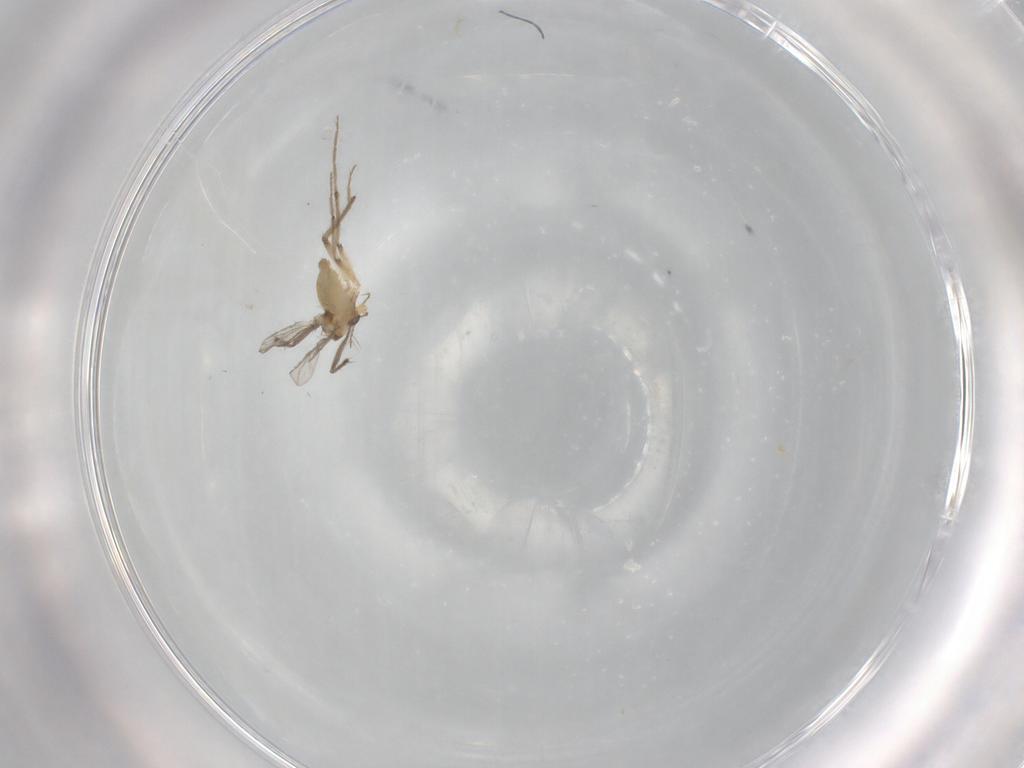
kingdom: Animalia
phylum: Arthropoda
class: Insecta
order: Diptera
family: Chironomidae
